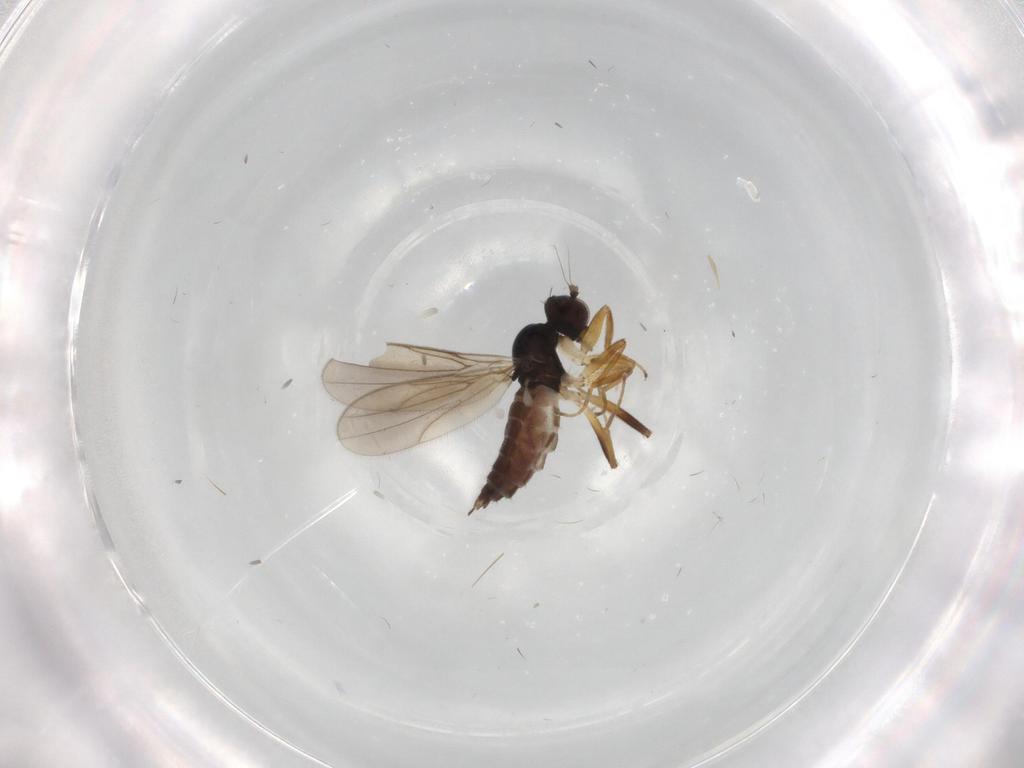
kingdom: Animalia
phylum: Arthropoda
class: Insecta
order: Diptera
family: Hybotidae
